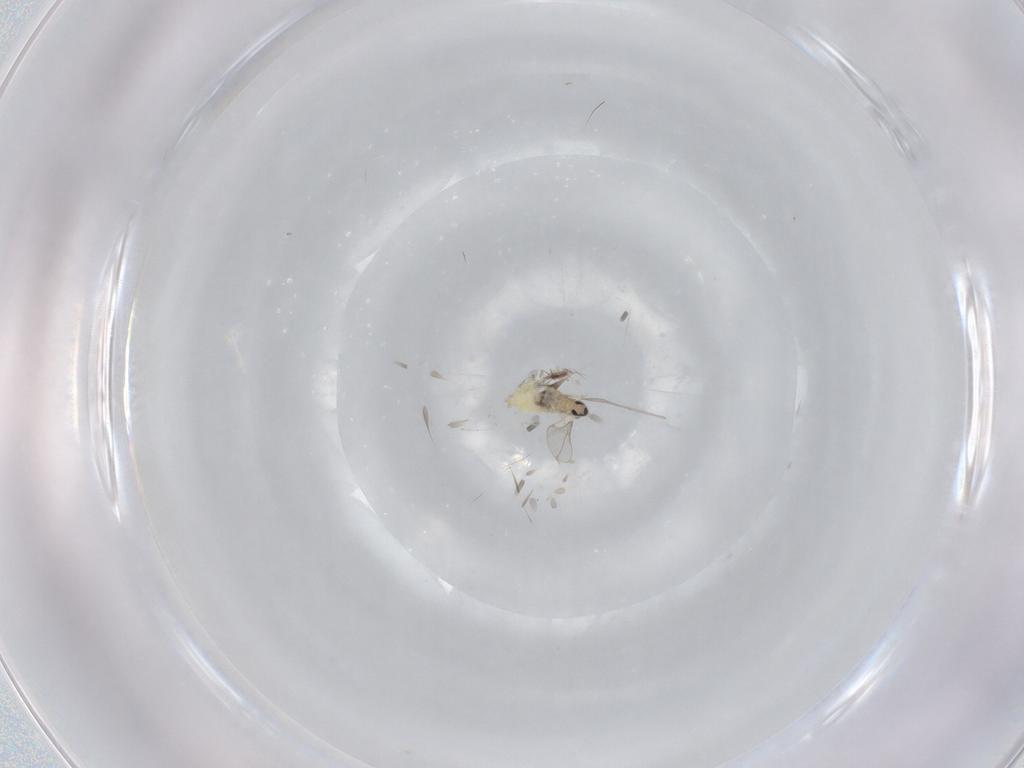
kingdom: Animalia
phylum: Arthropoda
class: Insecta
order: Diptera
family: Cecidomyiidae
